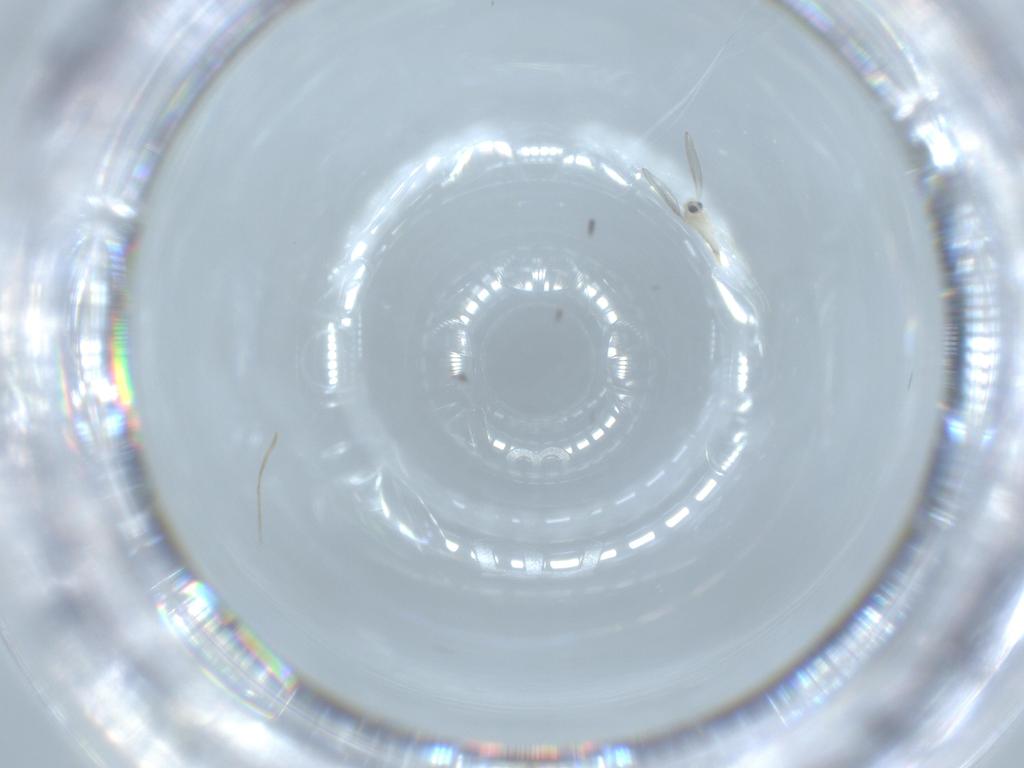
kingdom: Animalia
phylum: Arthropoda
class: Insecta
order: Diptera
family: Cecidomyiidae
